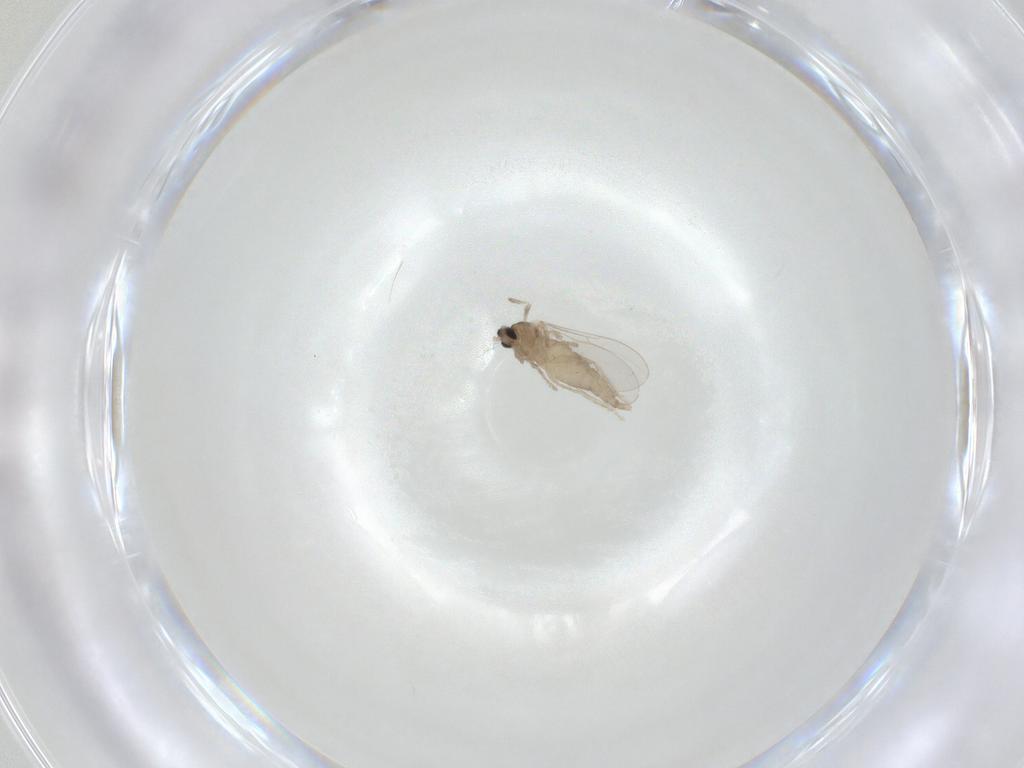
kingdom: Animalia
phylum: Arthropoda
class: Insecta
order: Diptera
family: Cecidomyiidae
